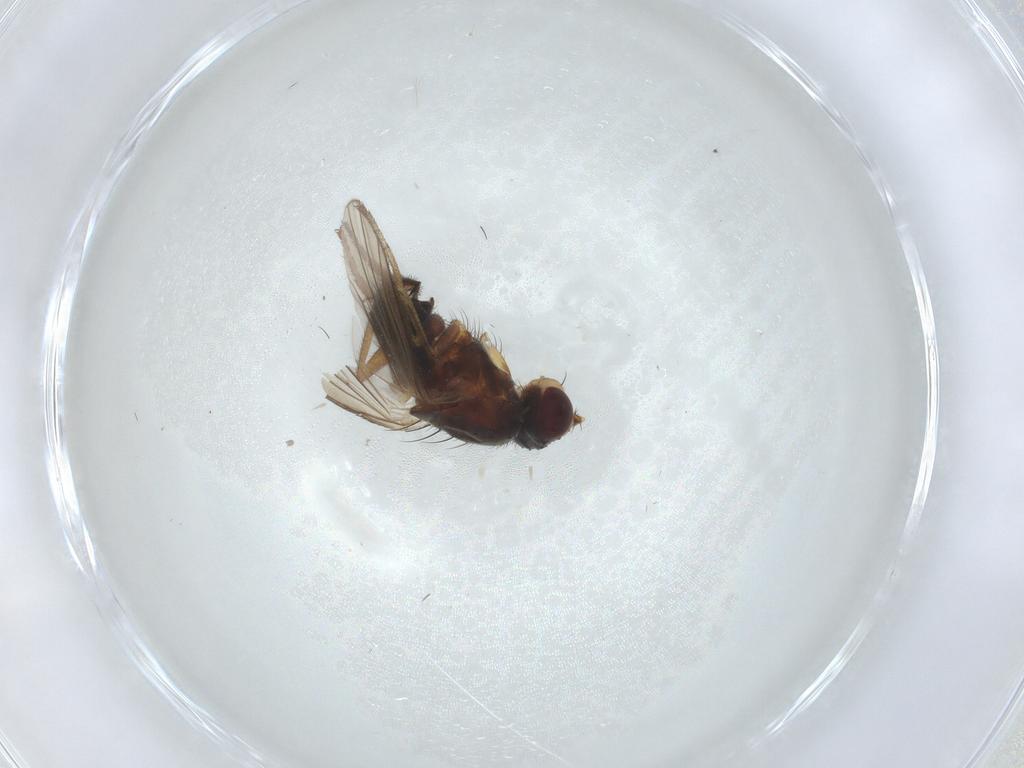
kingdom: Animalia
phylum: Arthropoda
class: Insecta
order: Diptera
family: Heleomyzidae
